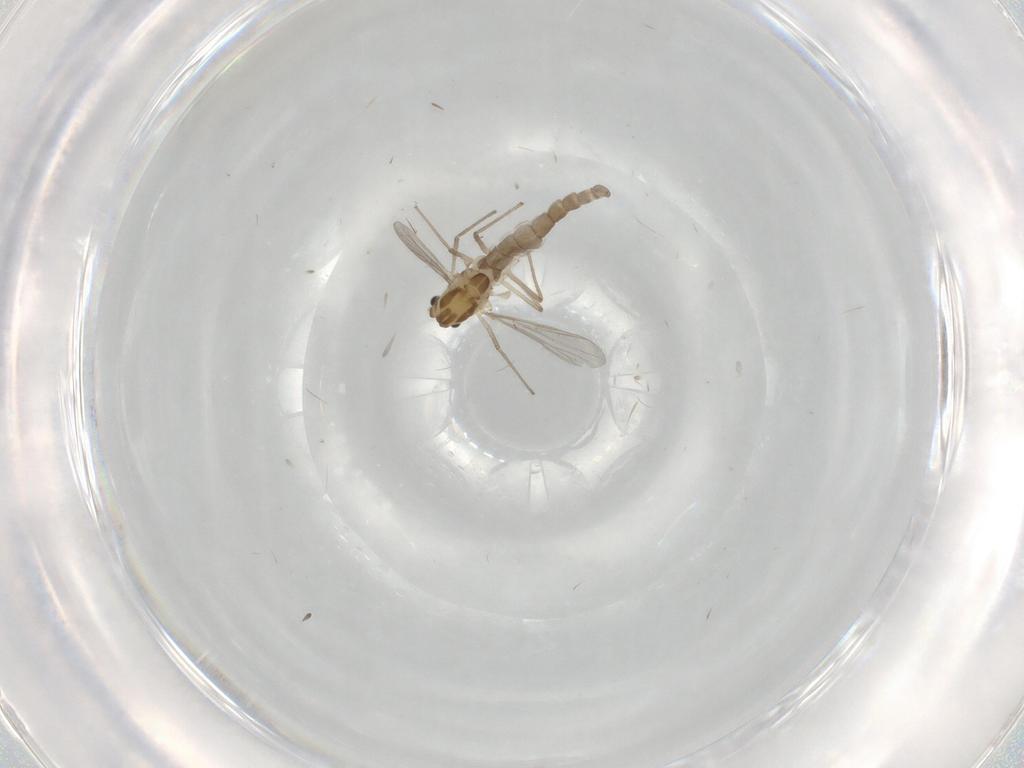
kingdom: Animalia
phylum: Arthropoda
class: Insecta
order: Diptera
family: Chironomidae
